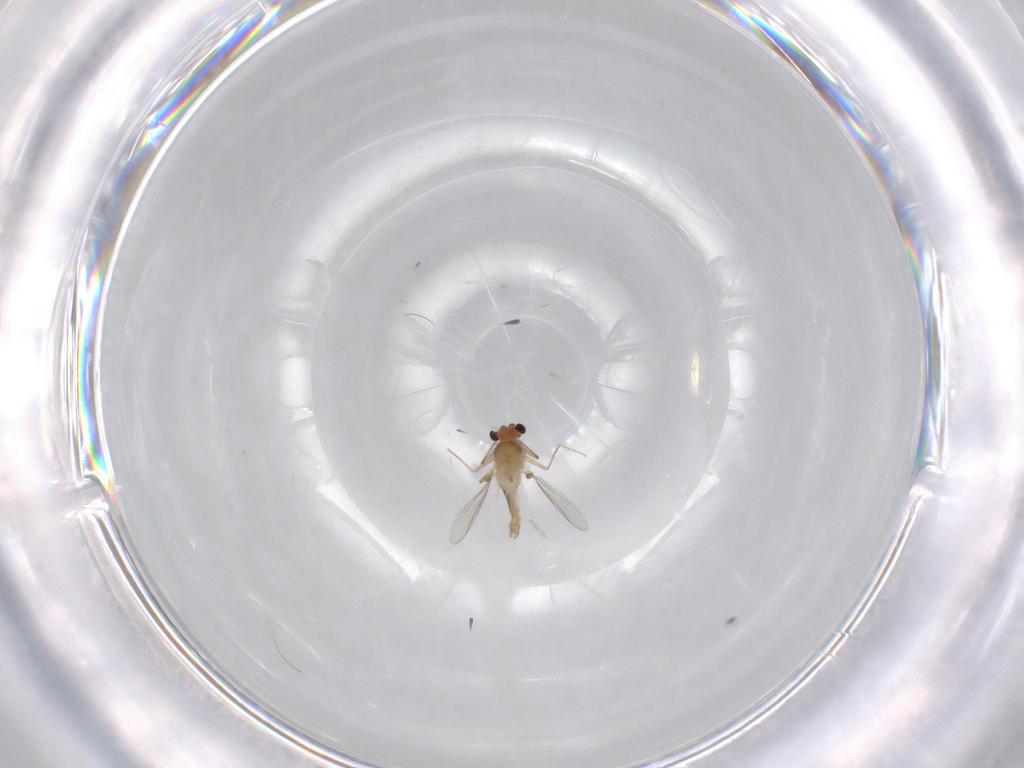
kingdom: Animalia
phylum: Arthropoda
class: Insecta
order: Diptera
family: Chironomidae
